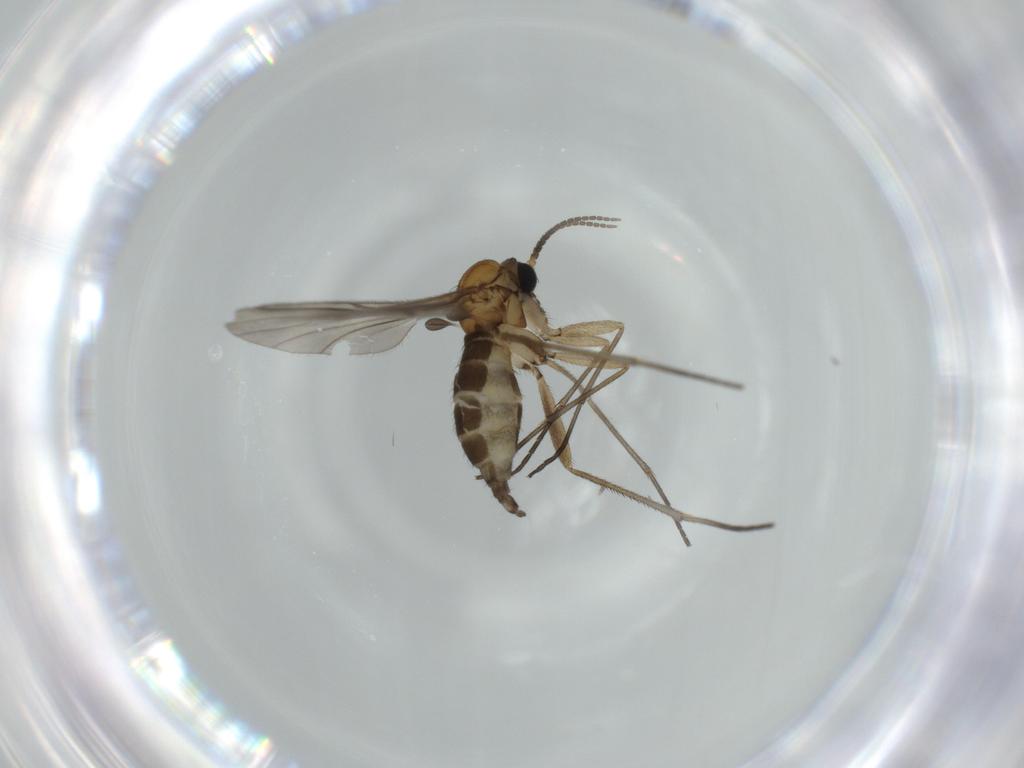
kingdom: Animalia
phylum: Arthropoda
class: Insecta
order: Diptera
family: Sciaridae
